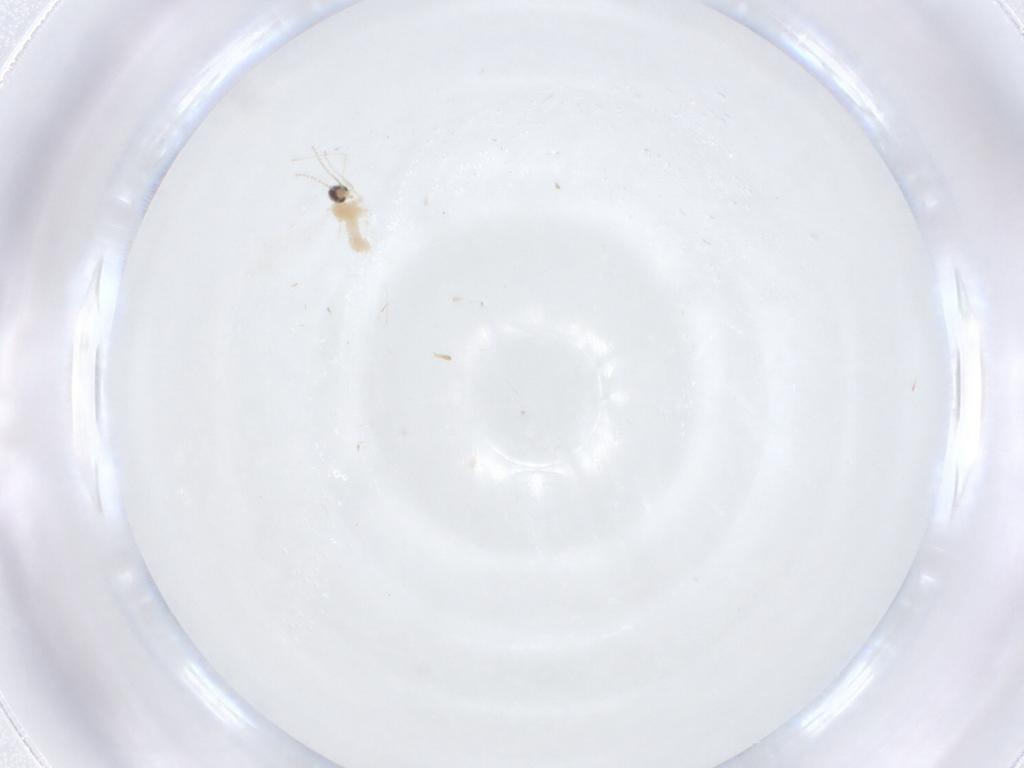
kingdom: Animalia
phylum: Arthropoda
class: Insecta
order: Diptera
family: Cecidomyiidae
